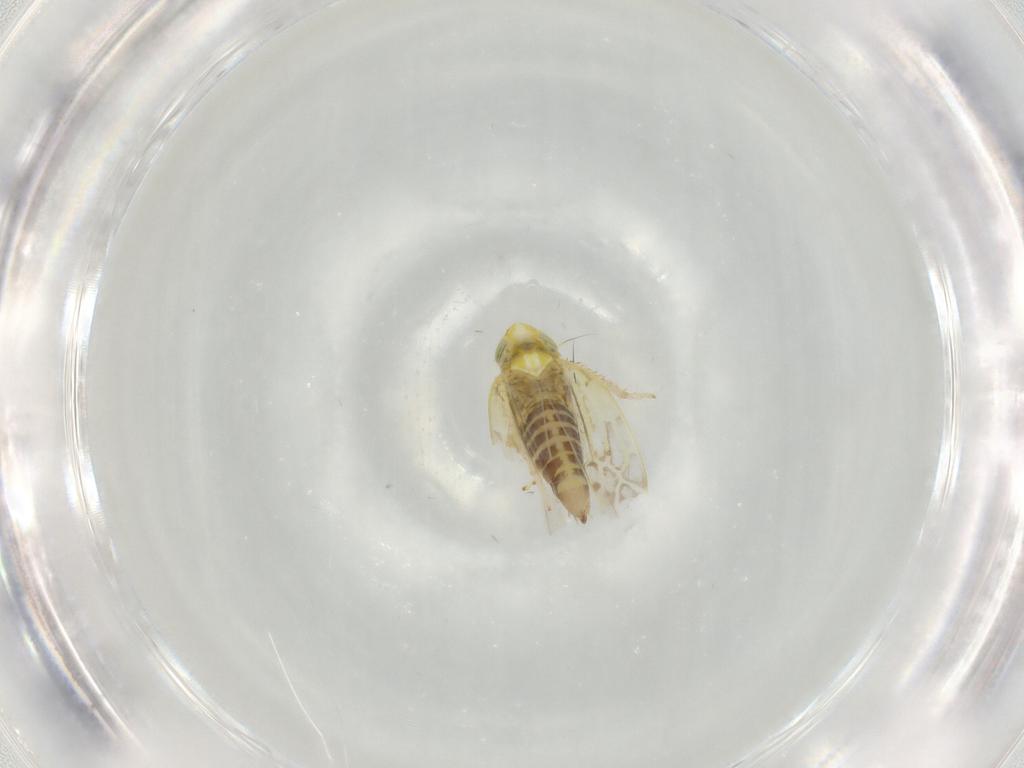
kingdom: Animalia
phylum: Arthropoda
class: Insecta
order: Hemiptera
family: Cicadellidae
